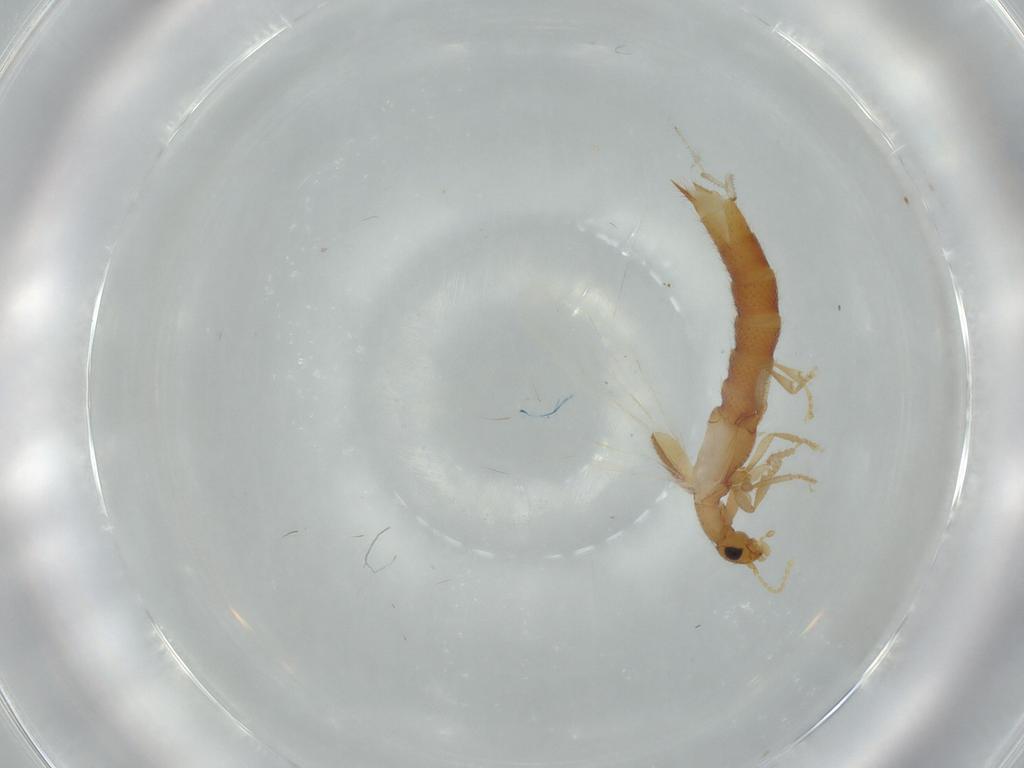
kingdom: Animalia
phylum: Arthropoda
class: Insecta
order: Coleoptera
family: Staphylinidae
